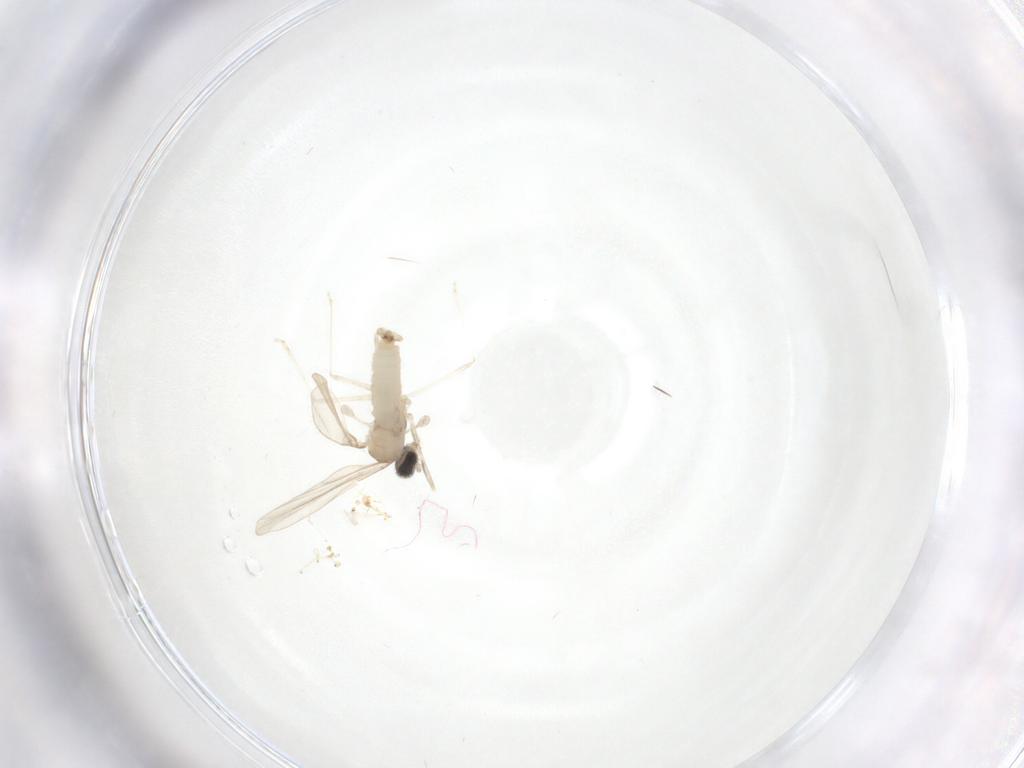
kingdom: Animalia
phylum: Arthropoda
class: Insecta
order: Diptera
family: Cecidomyiidae
